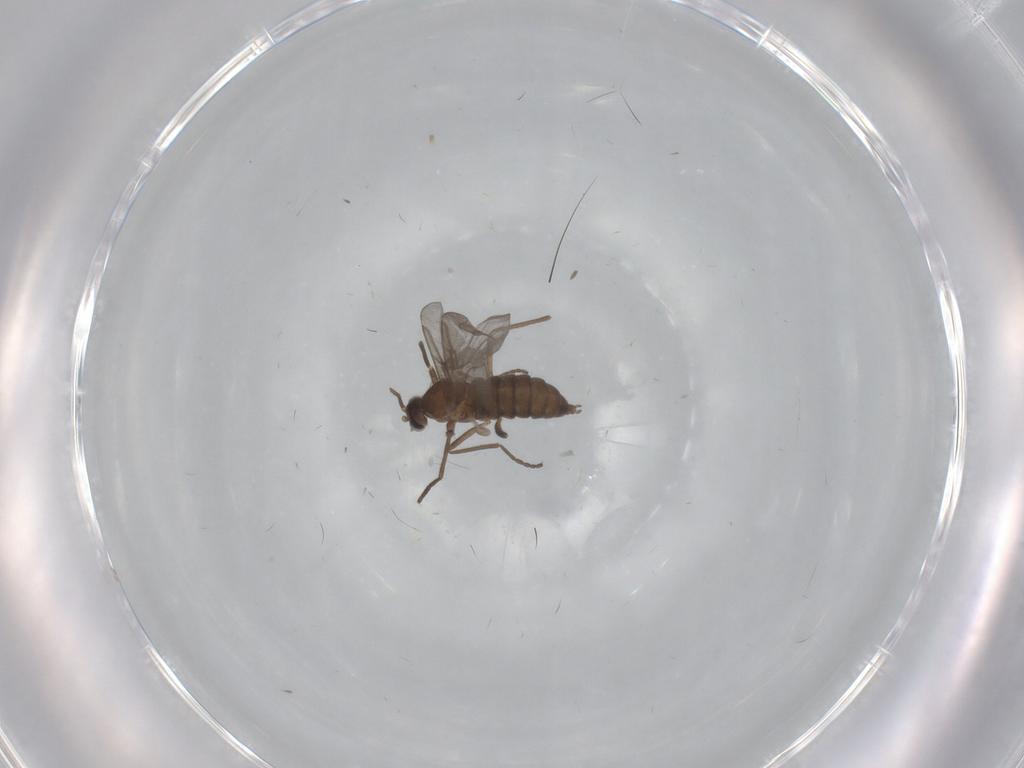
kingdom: Animalia
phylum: Arthropoda
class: Insecta
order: Diptera
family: Cecidomyiidae
